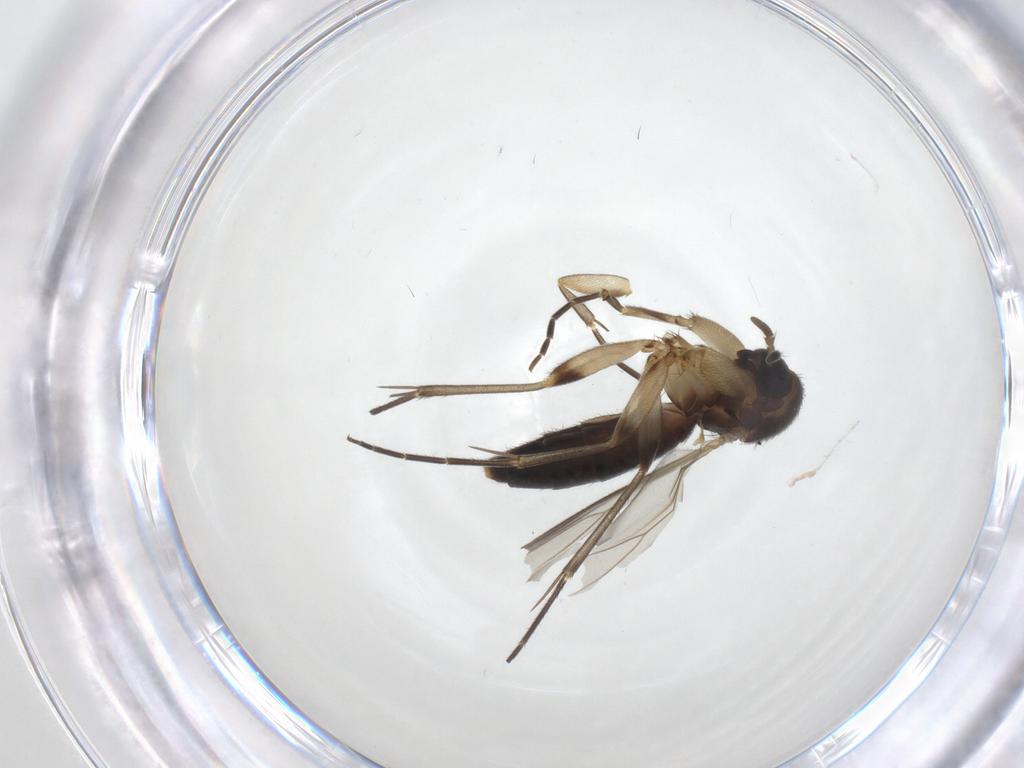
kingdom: Animalia
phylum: Arthropoda
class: Insecta
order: Diptera
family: Mycetophilidae
